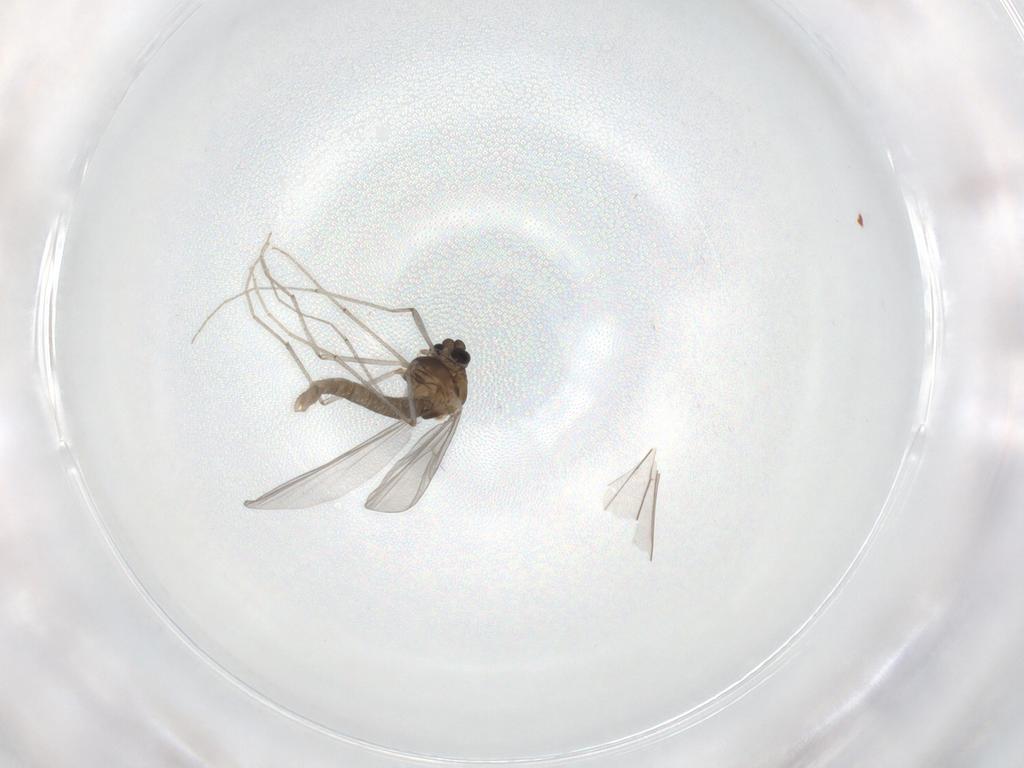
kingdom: Animalia
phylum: Arthropoda
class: Insecta
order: Diptera
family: Chironomidae
